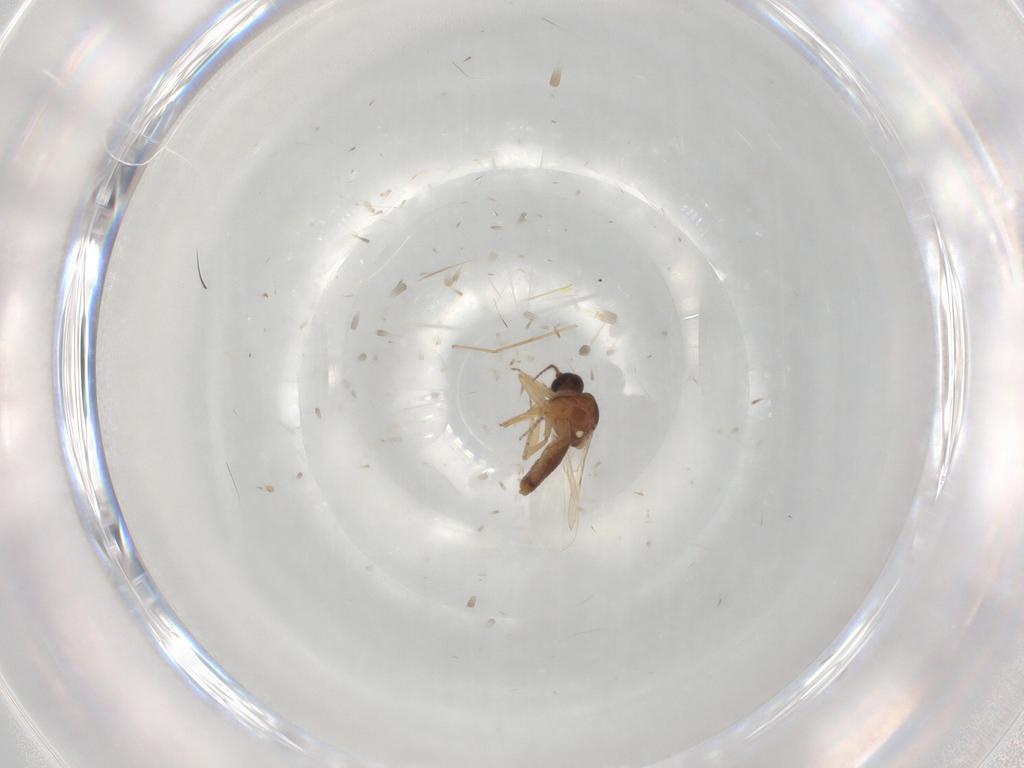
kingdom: Animalia
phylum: Arthropoda
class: Insecta
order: Diptera
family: Ceratopogonidae
